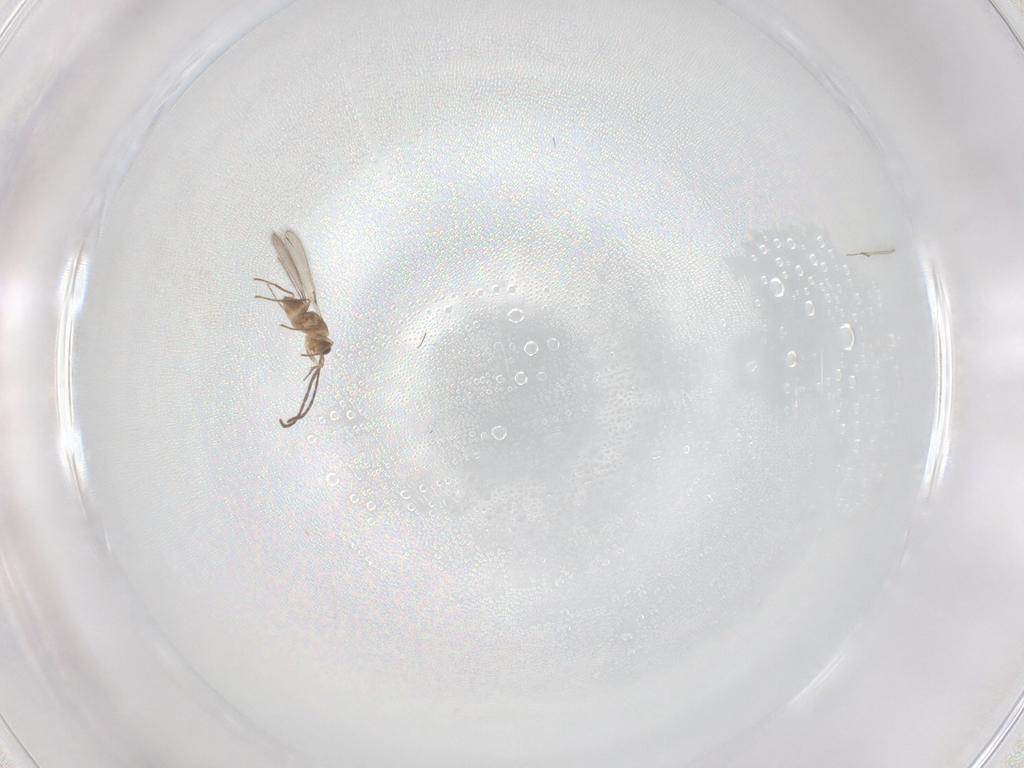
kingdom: Animalia
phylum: Arthropoda
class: Insecta
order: Hymenoptera
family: Mymaridae
